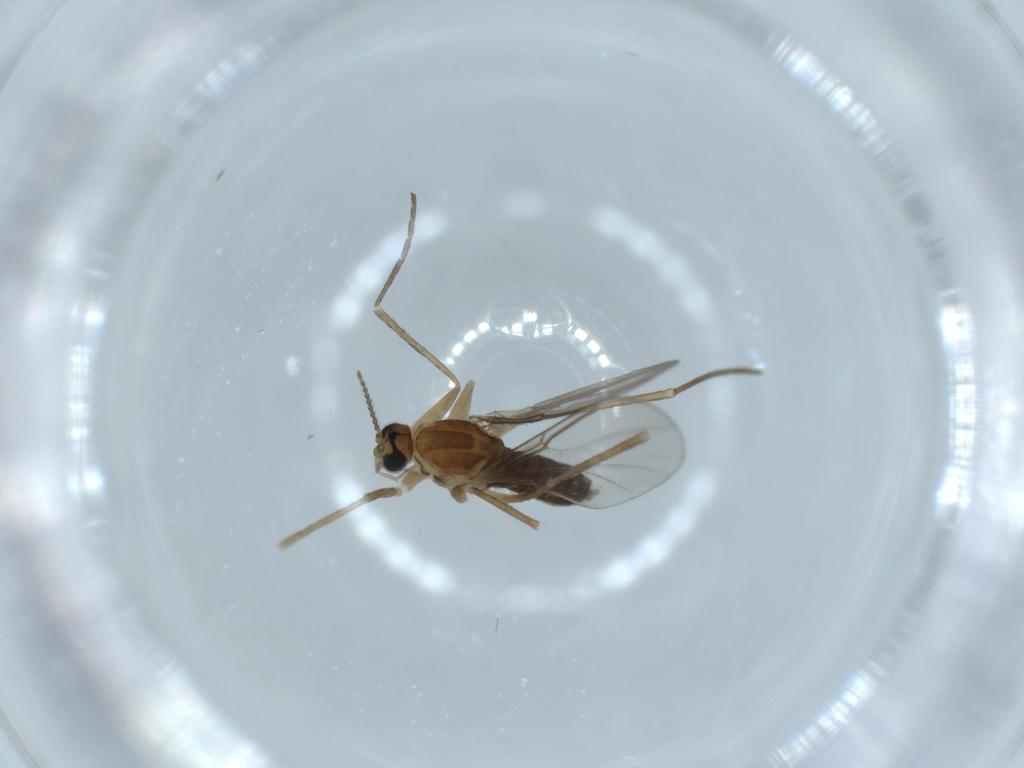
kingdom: Animalia
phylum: Arthropoda
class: Insecta
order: Diptera
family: Cecidomyiidae
